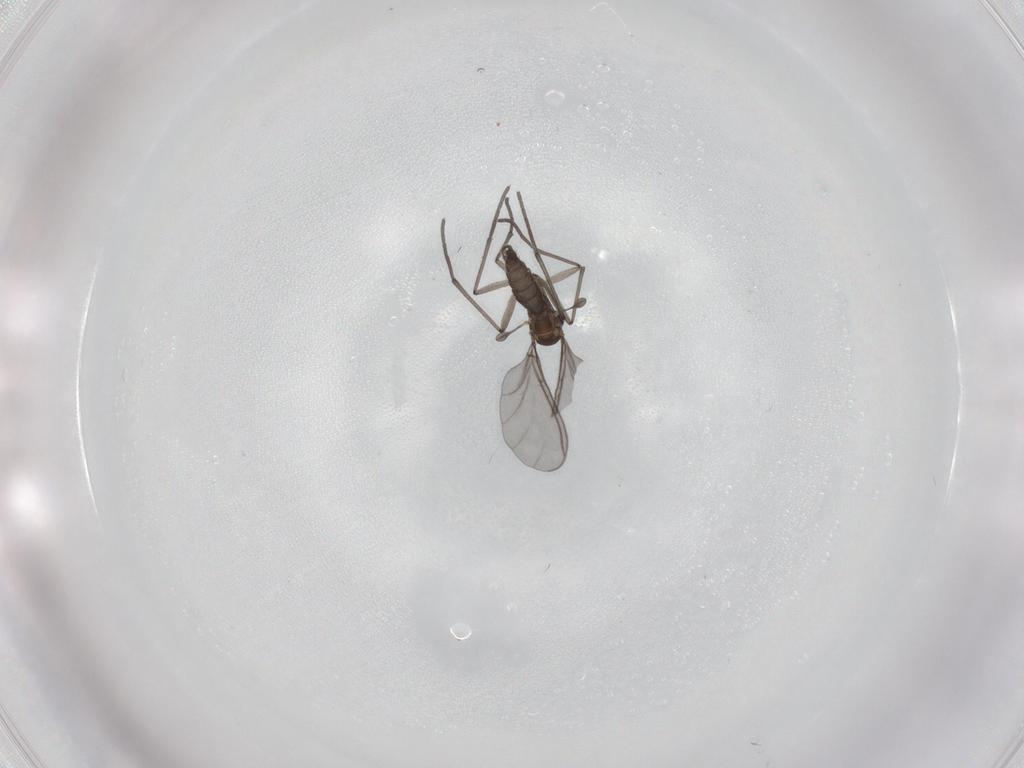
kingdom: Animalia
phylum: Arthropoda
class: Insecta
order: Diptera
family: Sciaridae
